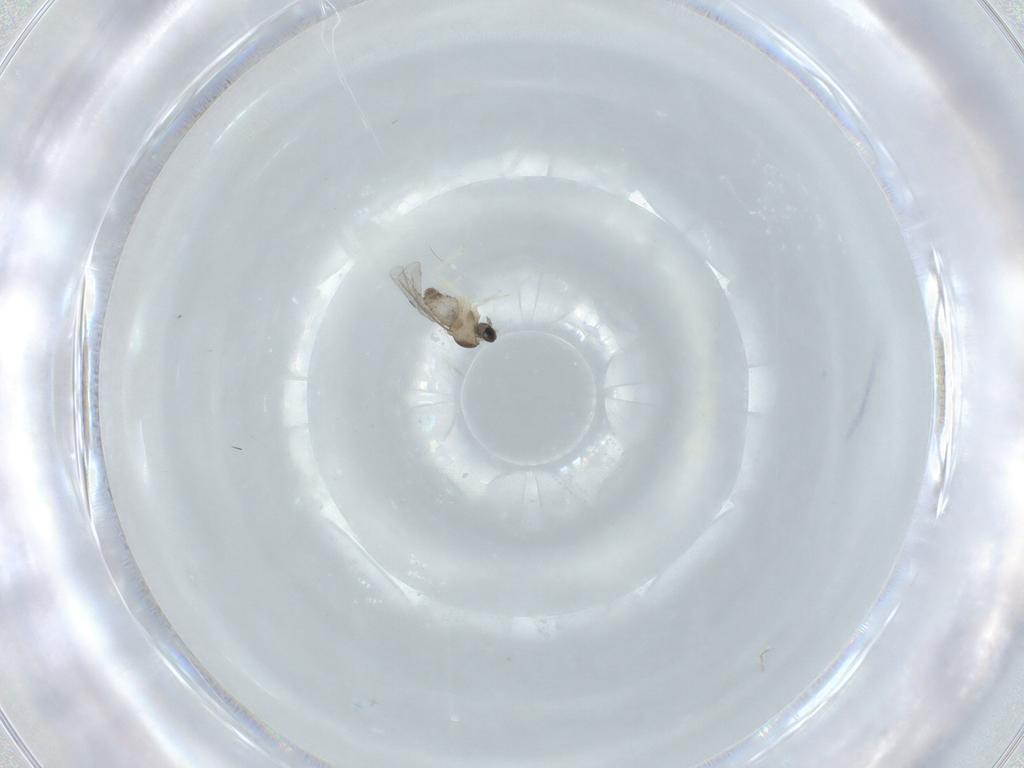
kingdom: Animalia
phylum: Arthropoda
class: Insecta
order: Diptera
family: Cecidomyiidae
